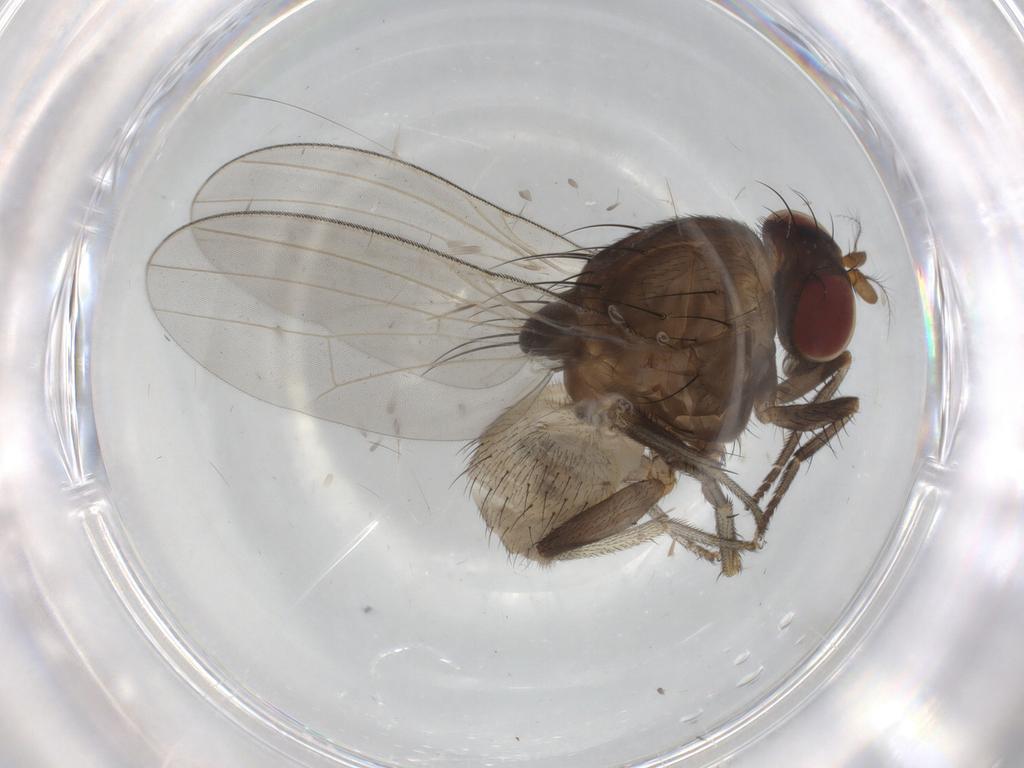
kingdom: Animalia
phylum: Arthropoda
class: Insecta
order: Diptera
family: Lauxaniidae
